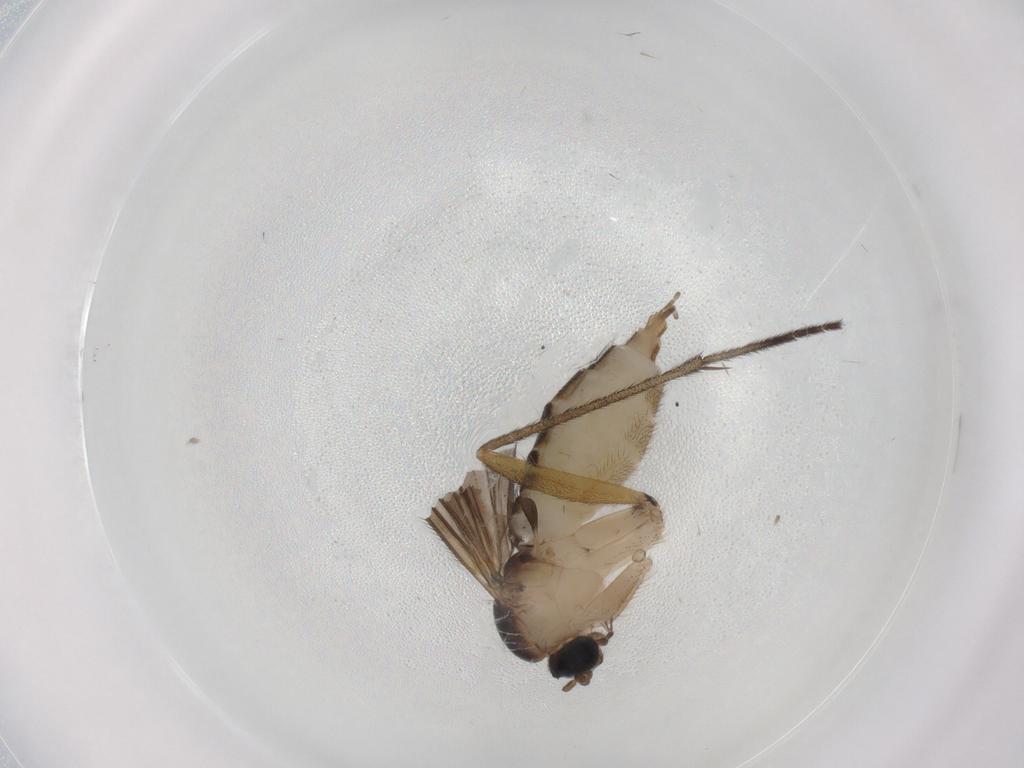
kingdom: Animalia
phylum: Arthropoda
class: Insecta
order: Diptera
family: Sciaridae
